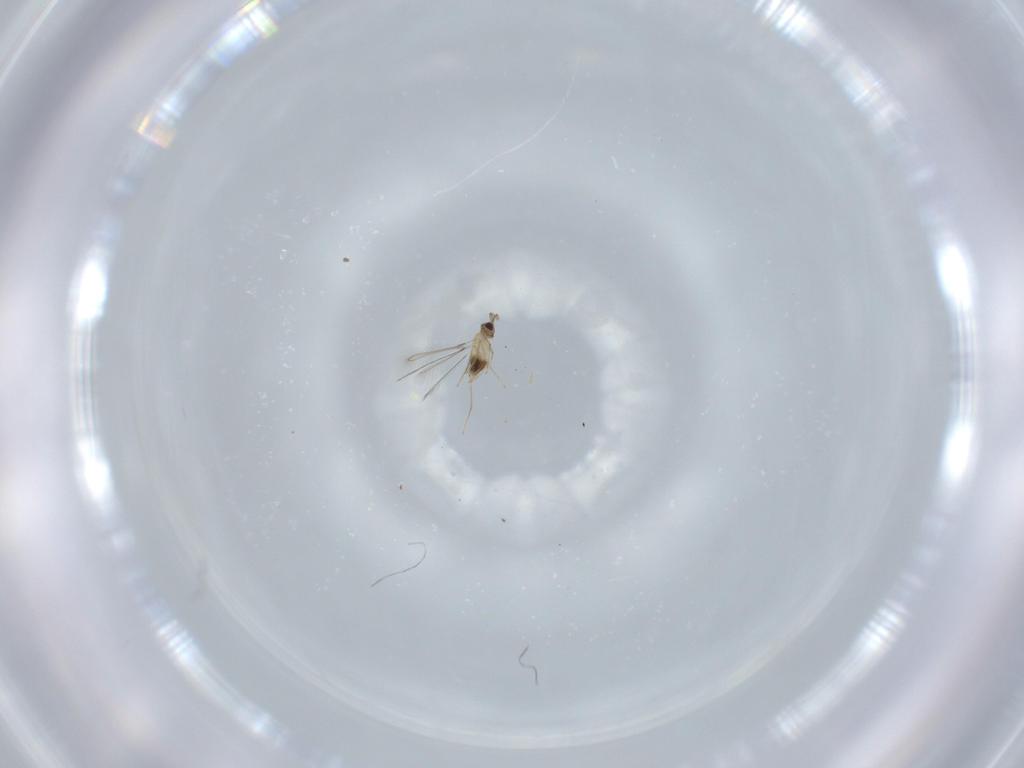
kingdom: Animalia
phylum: Arthropoda
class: Insecta
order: Hymenoptera
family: Mymaridae
